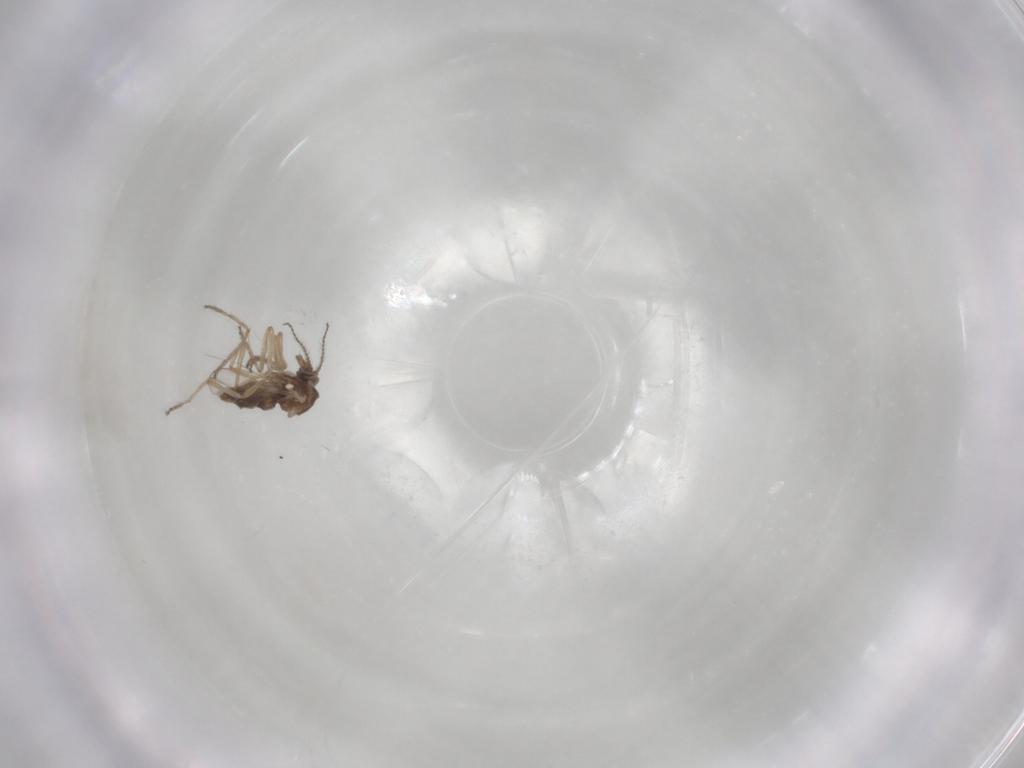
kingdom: Animalia
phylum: Arthropoda
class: Insecta
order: Diptera
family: Ceratopogonidae
